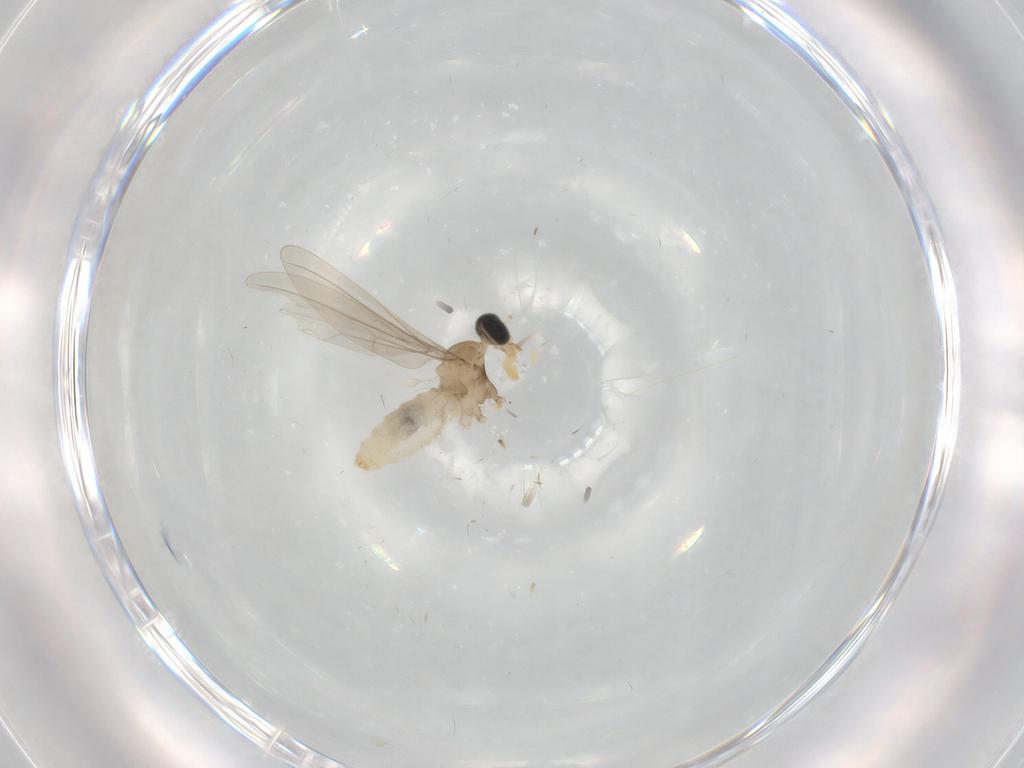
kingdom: Animalia
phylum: Arthropoda
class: Insecta
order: Diptera
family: Cecidomyiidae
